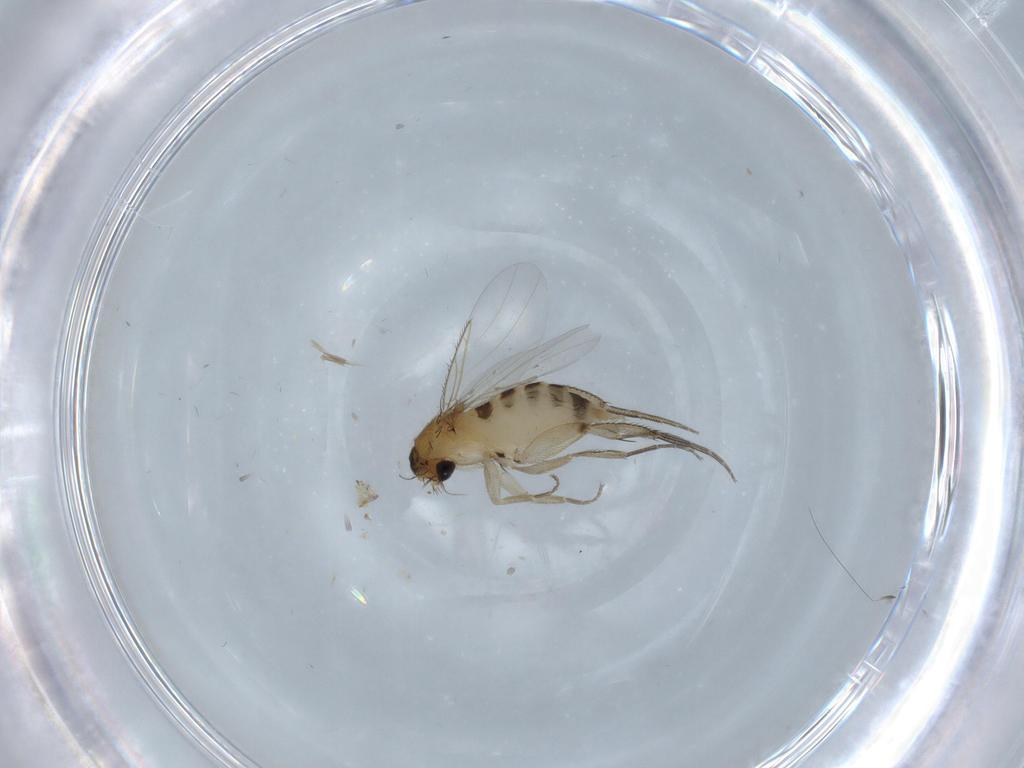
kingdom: Animalia
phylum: Arthropoda
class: Insecta
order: Diptera
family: Phoridae
